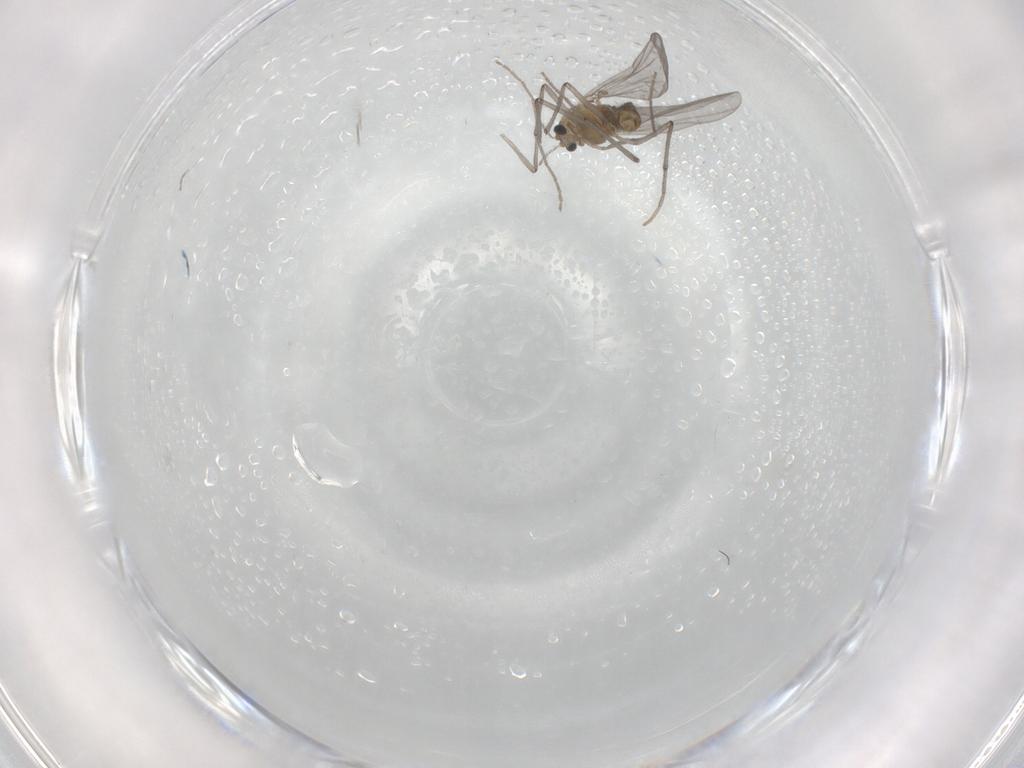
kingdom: Animalia
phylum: Arthropoda
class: Insecta
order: Diptera
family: Chironomidae
